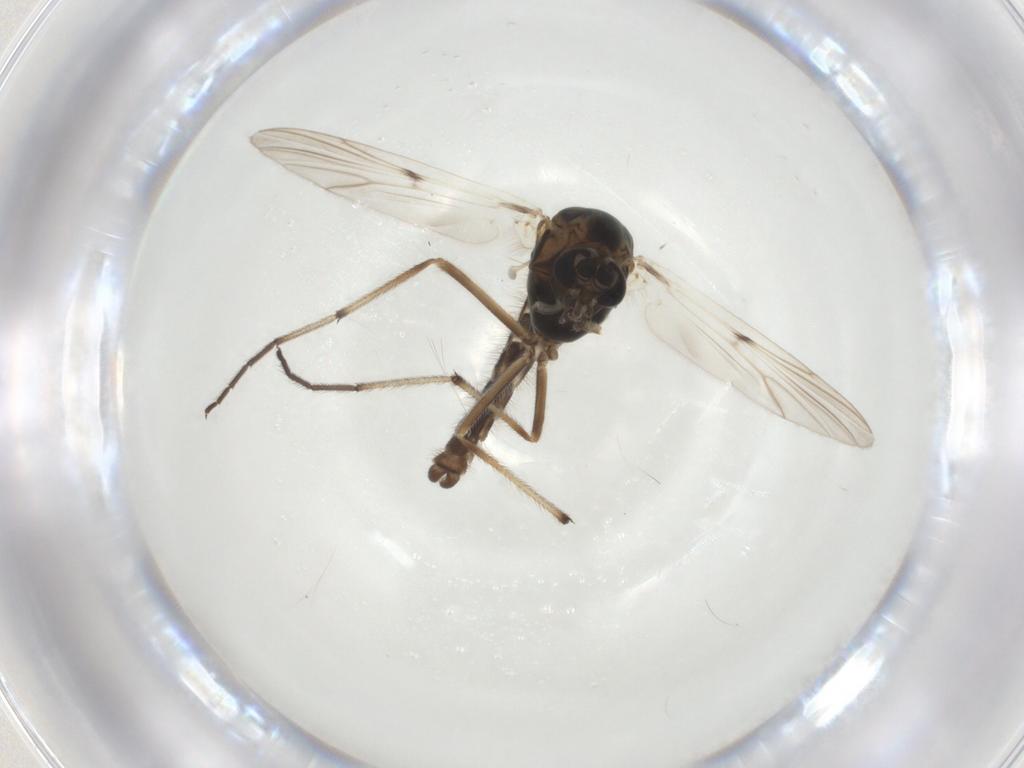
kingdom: Animalia
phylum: Arthropoda
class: Insecta
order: Diptera
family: Chironomidae
